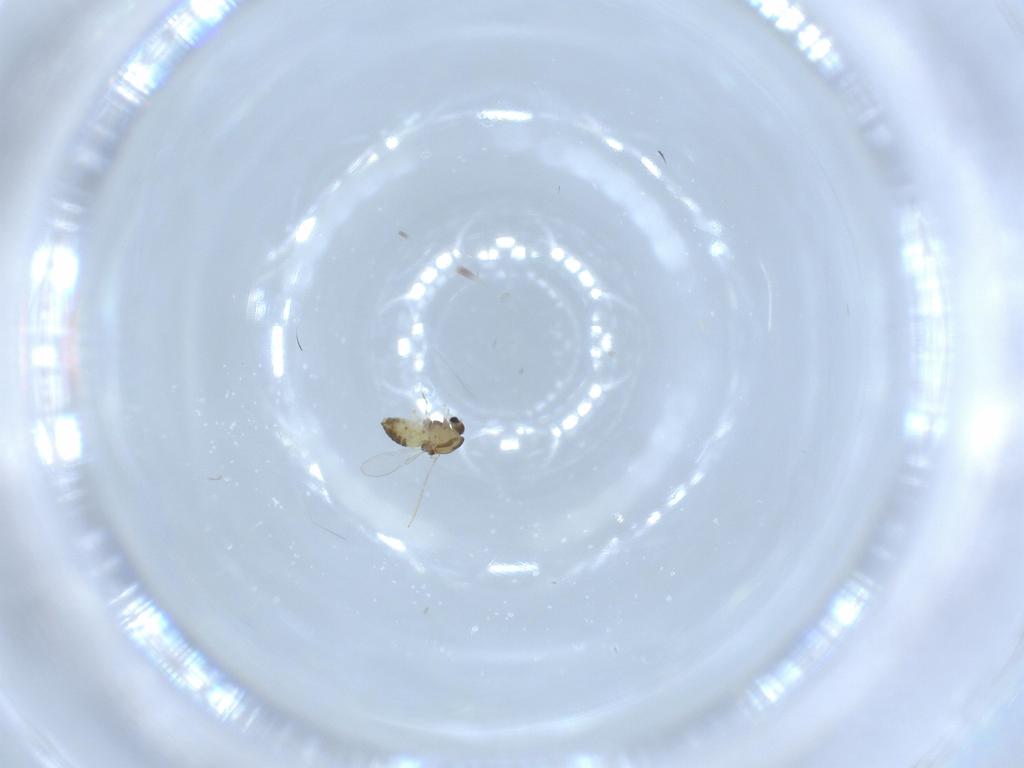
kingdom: Animalia
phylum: Arthropoda
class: Insecta
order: Diptera
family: Chironomidae
